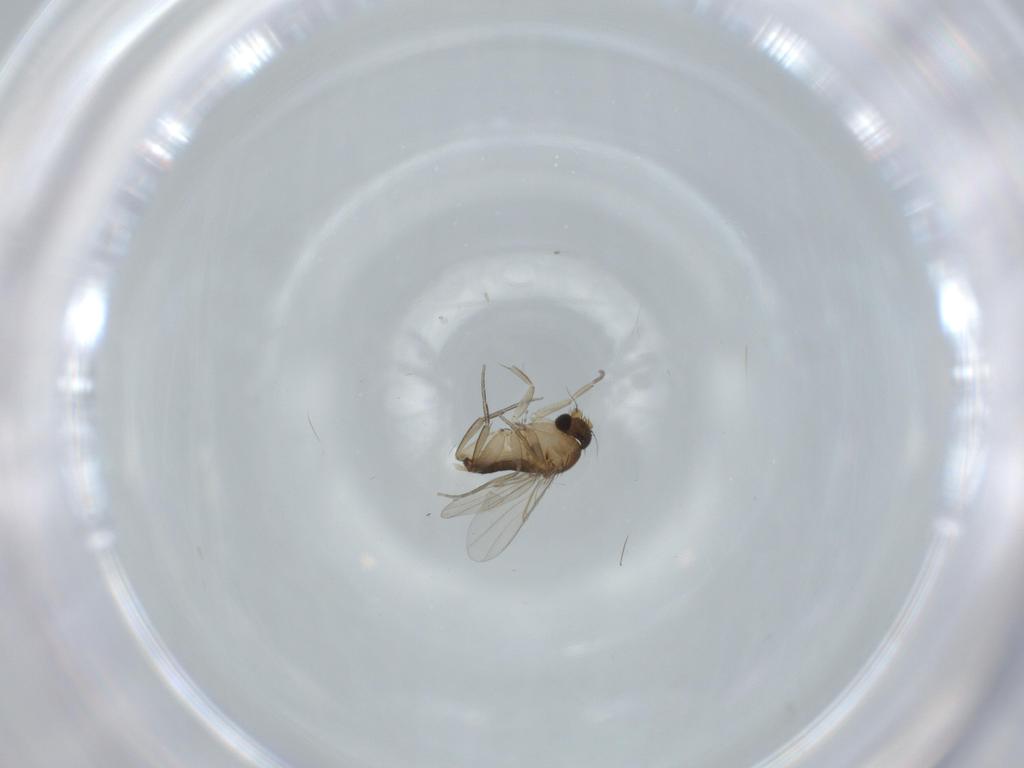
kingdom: Animalia
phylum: Arthropoda
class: Insecta
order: Diptera
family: Cecidomyiidae
